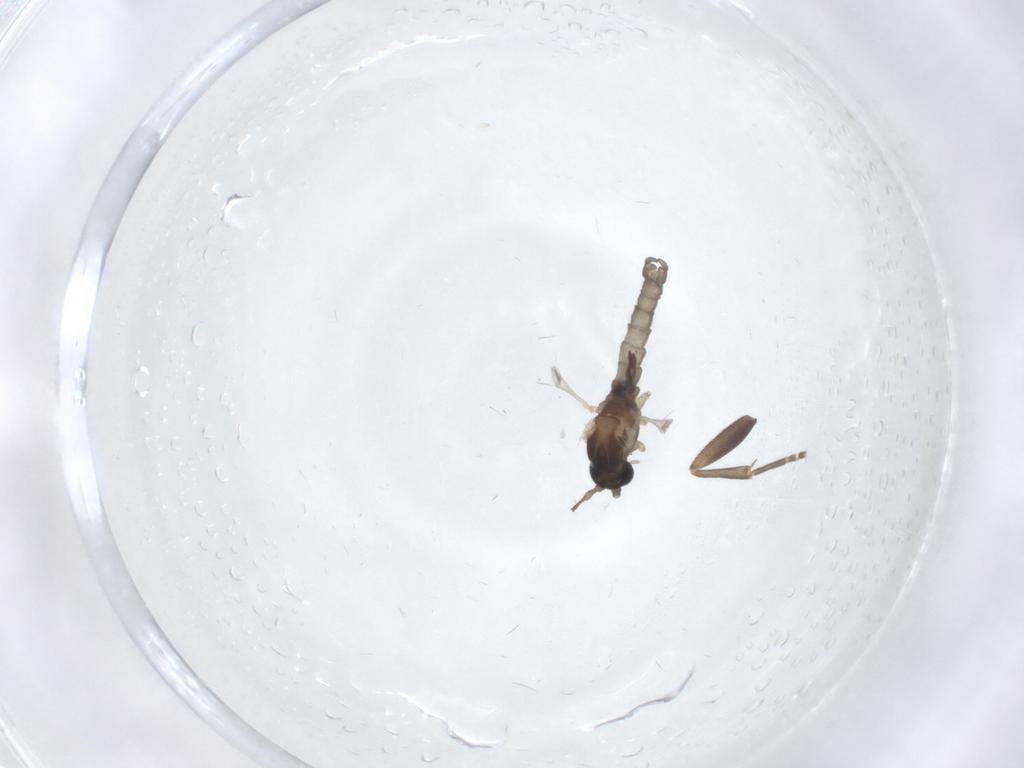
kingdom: Animalia
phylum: Arthropoda
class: Insecta
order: Diptera
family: Mycetophilidae
